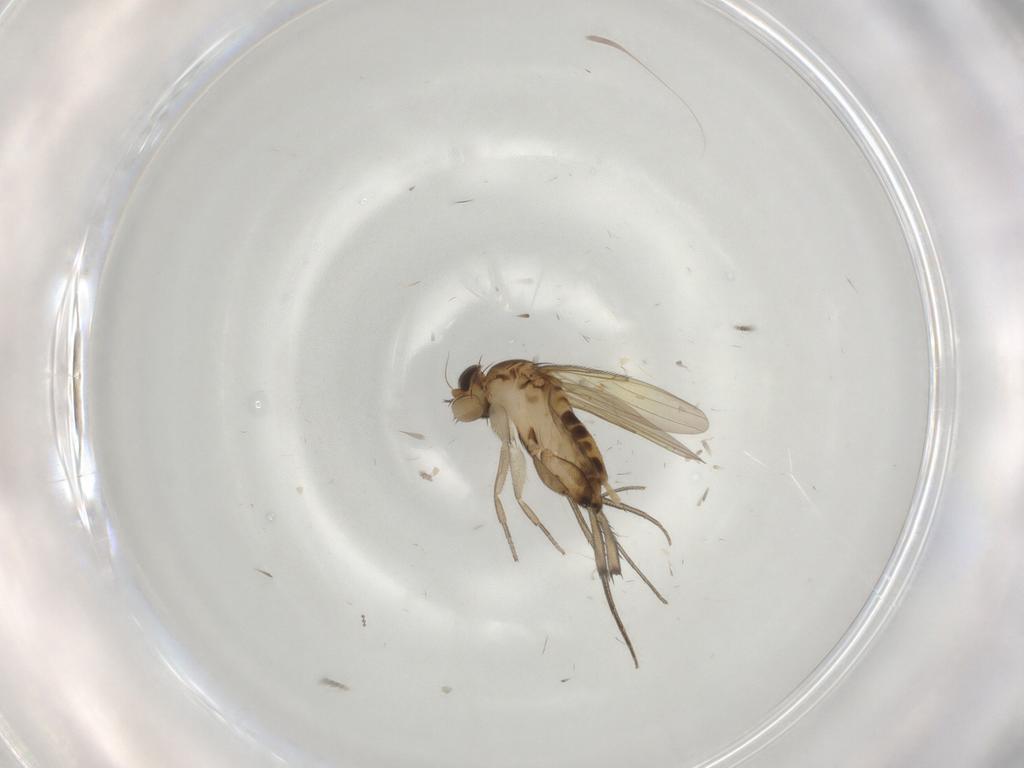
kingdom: Animalia
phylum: Arthropoda
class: Insecta
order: Diptera
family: Phoridae
